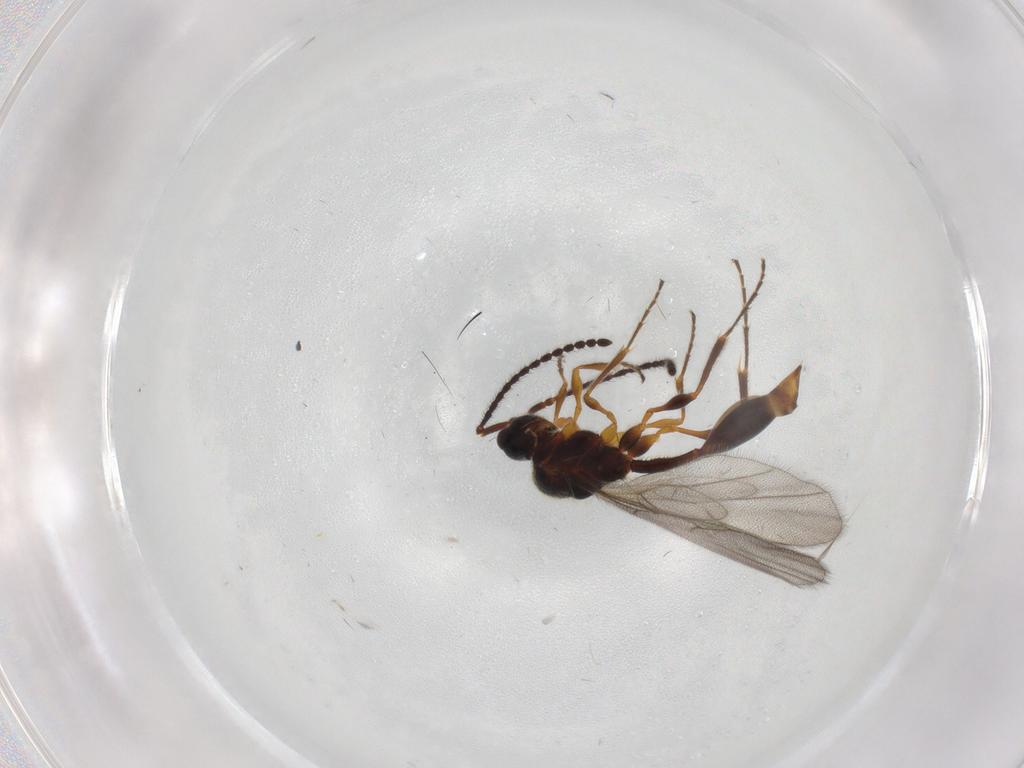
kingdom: Animalia
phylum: Arthropoda
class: Insecta
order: Hymenoptera
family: Diapriidae
